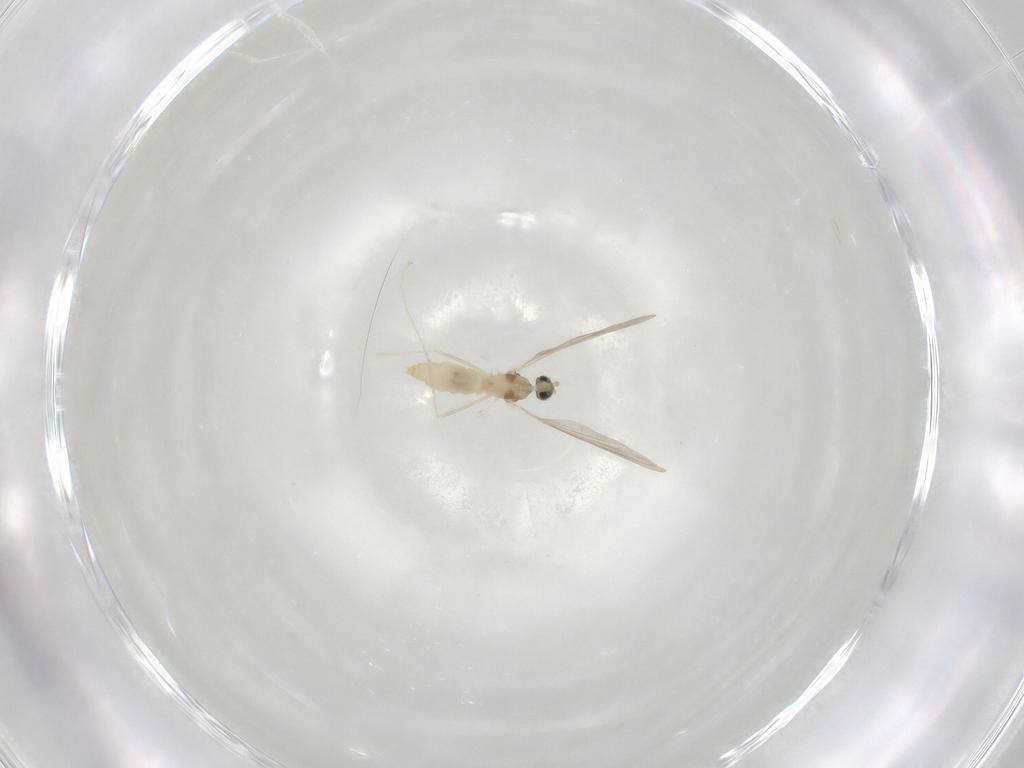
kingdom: Animalia
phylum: Arthropoda
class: Insecta
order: Diptera
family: Cecidomyiidae
